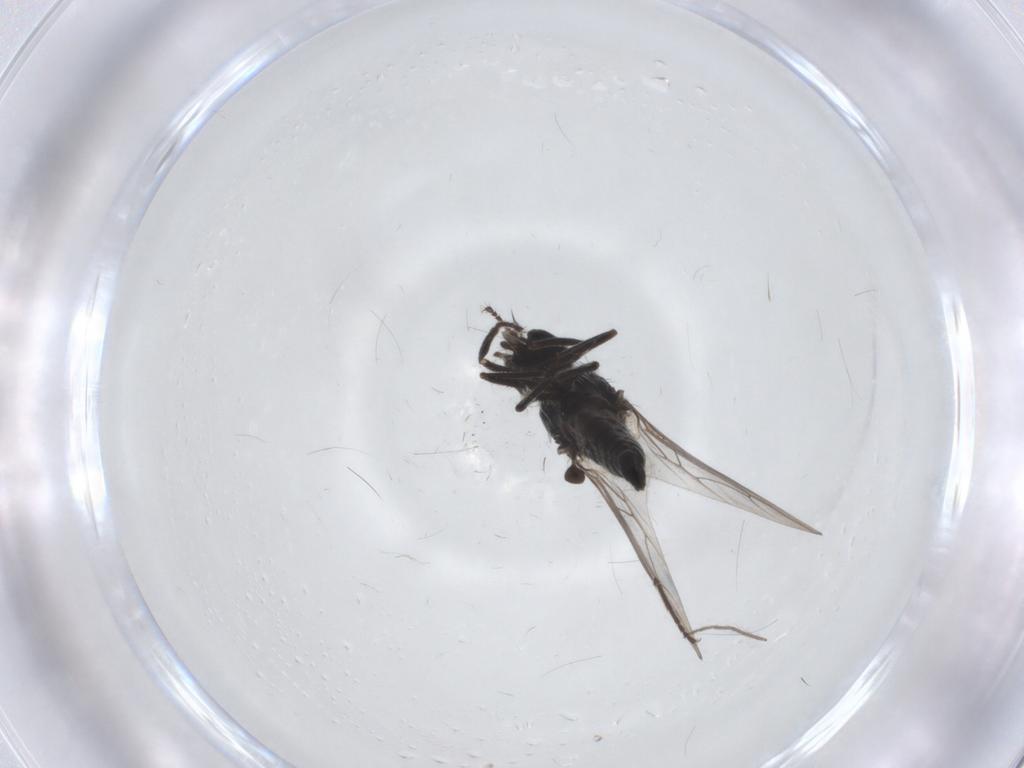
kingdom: Animalia
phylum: Arthropoda
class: Insecta
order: Diptera
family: Hybotidae
